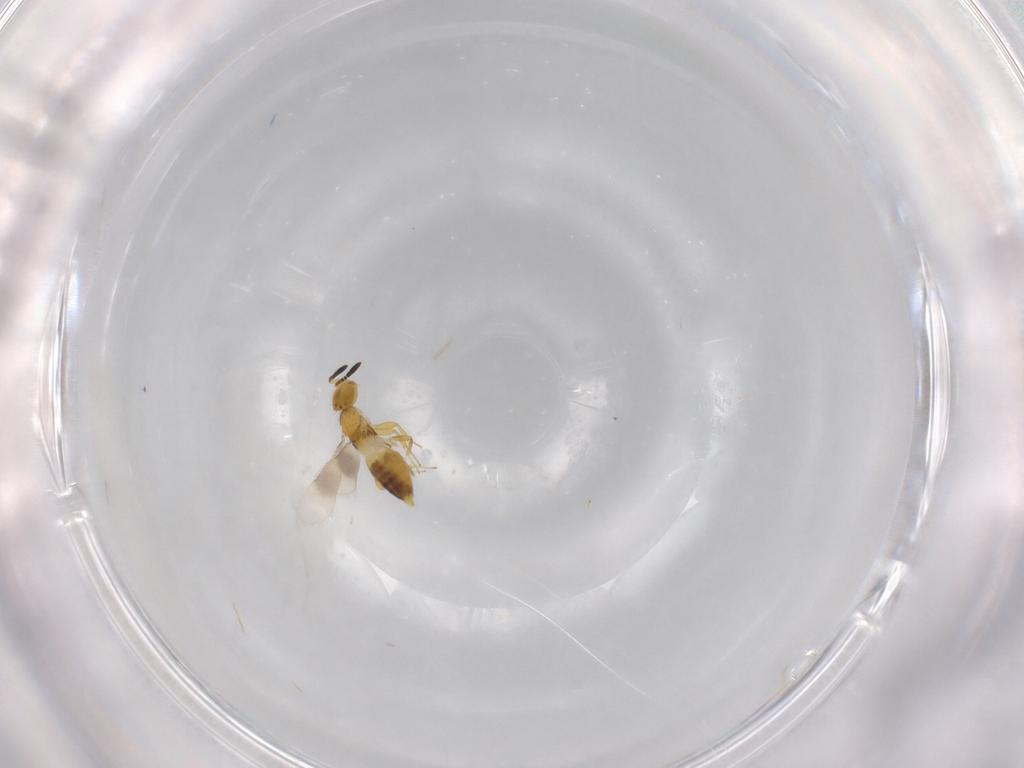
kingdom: Animalia
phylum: Arthropoda
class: Insecta
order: Hymenoptera
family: Encyrtidae
